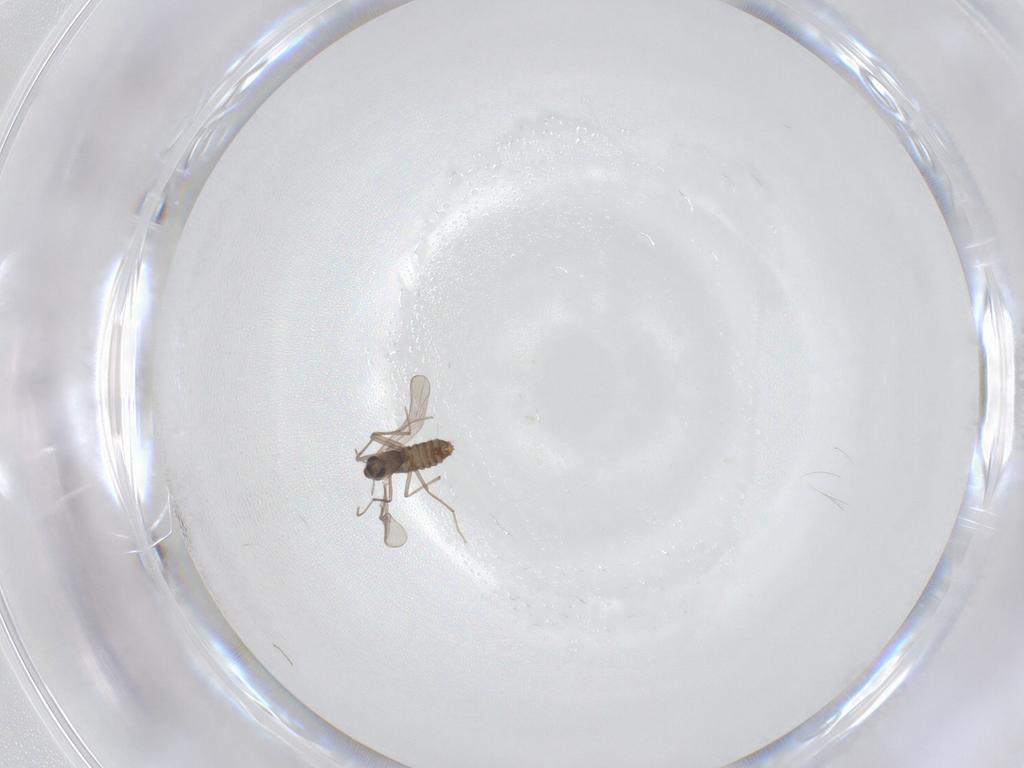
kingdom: Animalia
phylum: Arthropoda
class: Insecta
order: Diptera
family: Chironomidae
